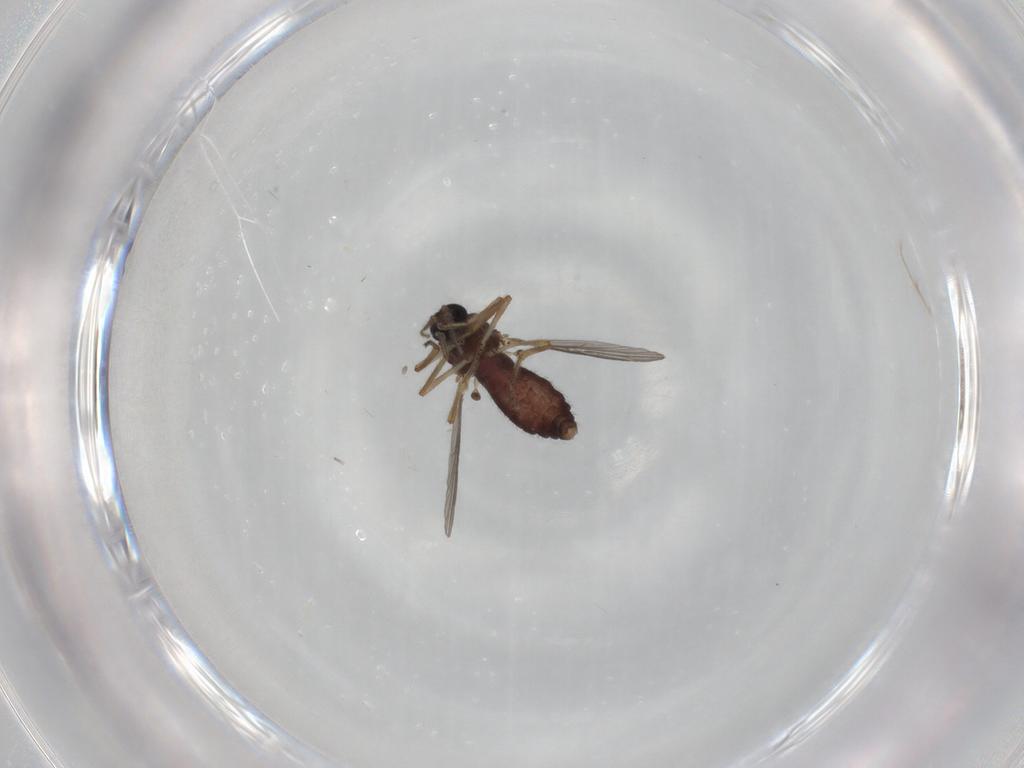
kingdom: Animalia
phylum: Arthropoda
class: Insecta
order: Diptera
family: Ceratopogonidae
